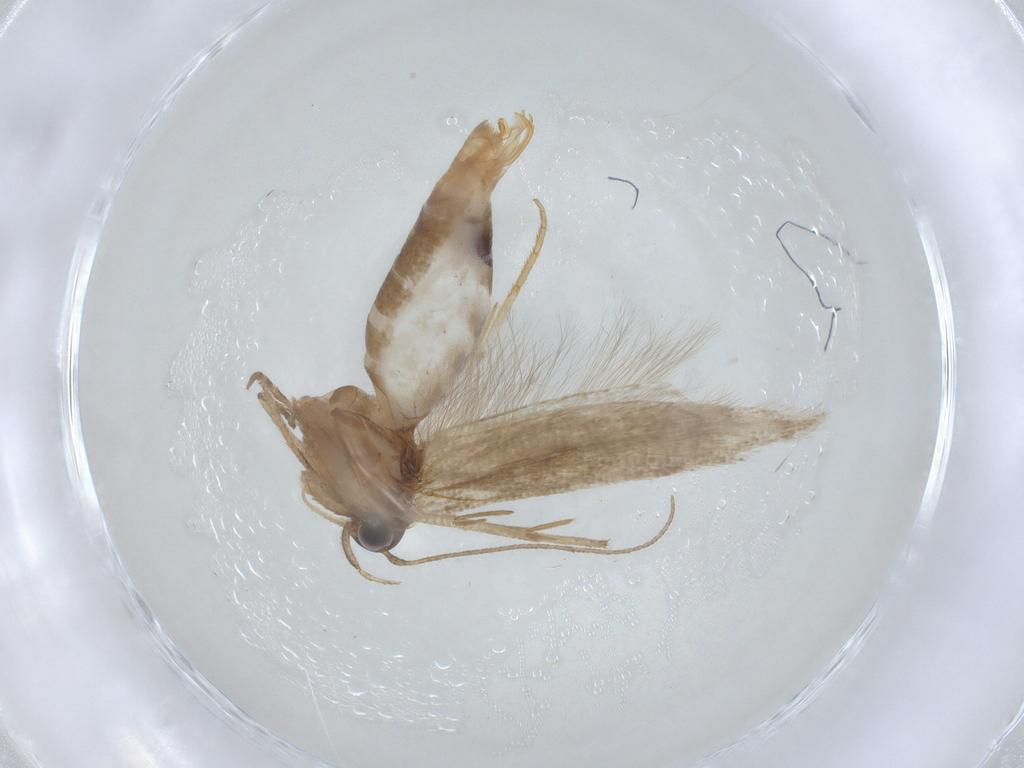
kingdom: Animalia
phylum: Arthropoda
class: Insecta
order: Lepidoptera
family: Gelechiidae
